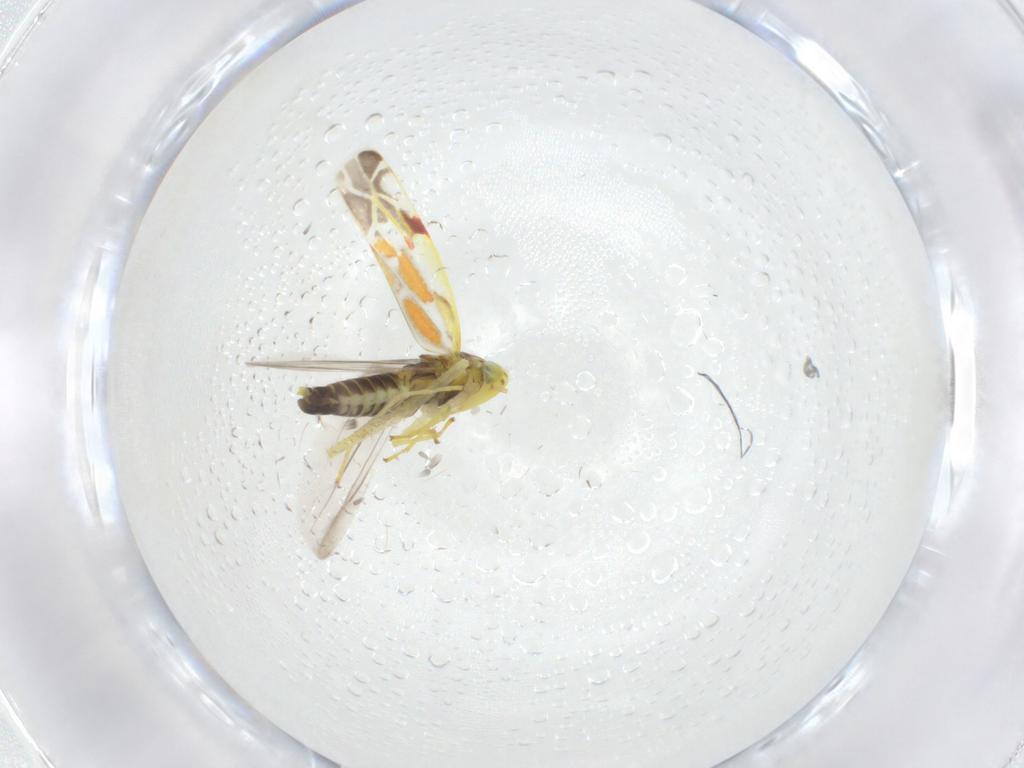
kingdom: Animalia
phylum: Arthropoda
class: Insecta
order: Hemiptera
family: Cicadellidae
